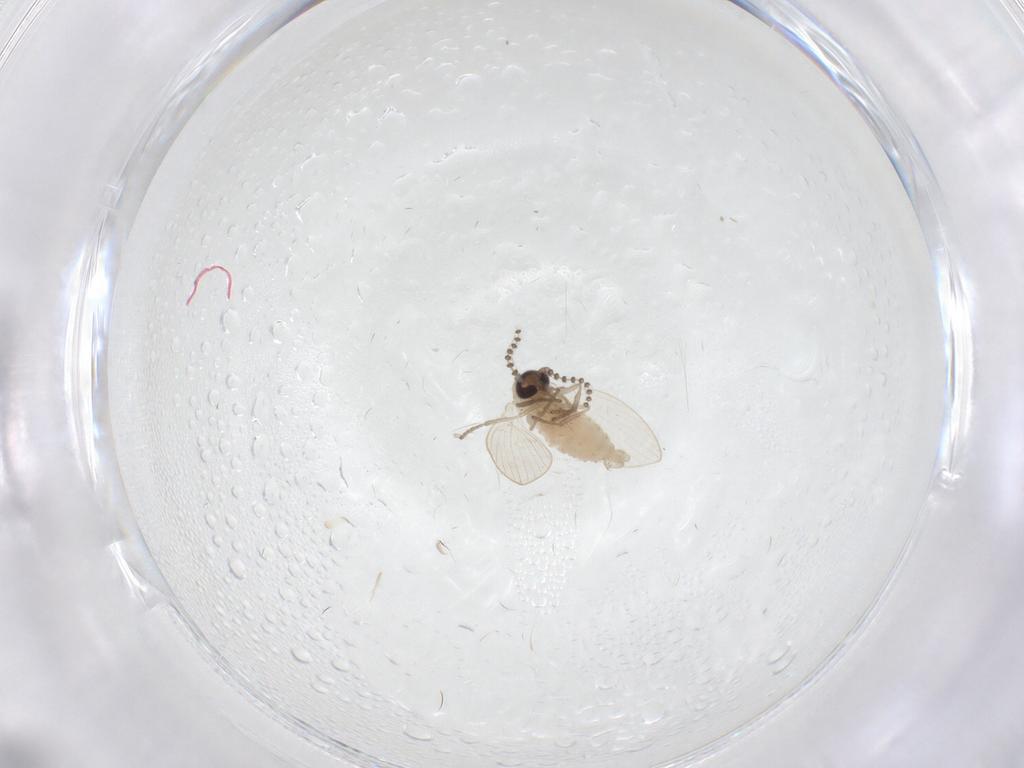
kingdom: Animalia
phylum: Arthropoda
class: Insecta
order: Diptera
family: Psychodidae
